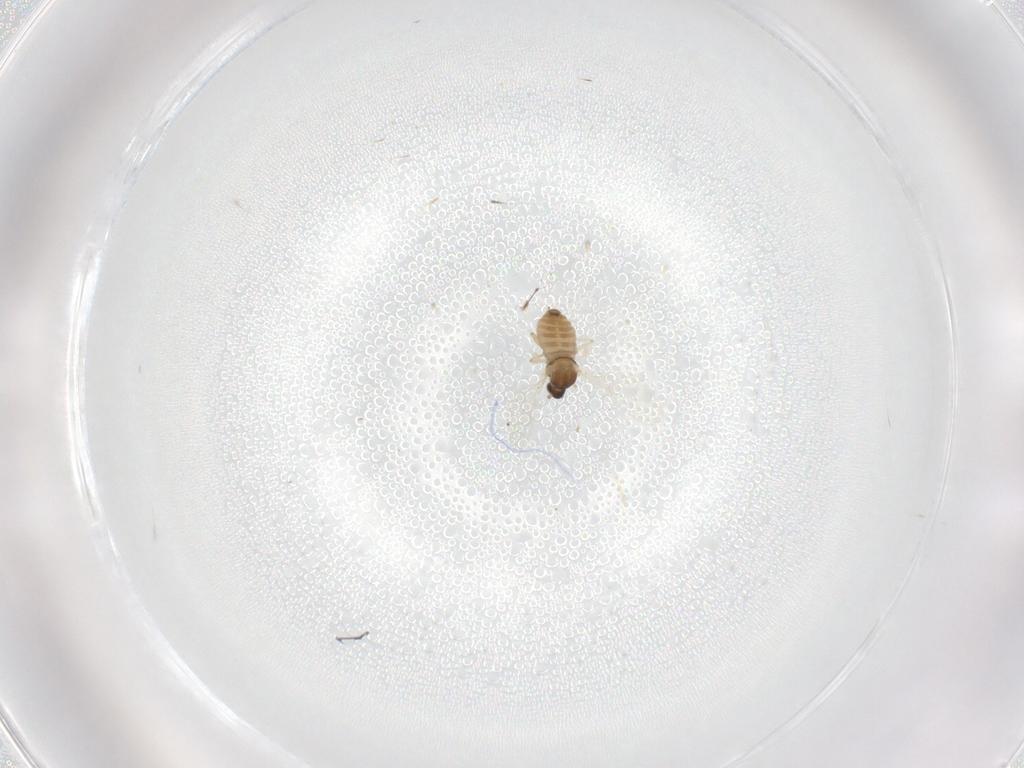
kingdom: Animalia
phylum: Arthropoda
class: Insecta
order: Diptera
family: Cecidomyiidae
